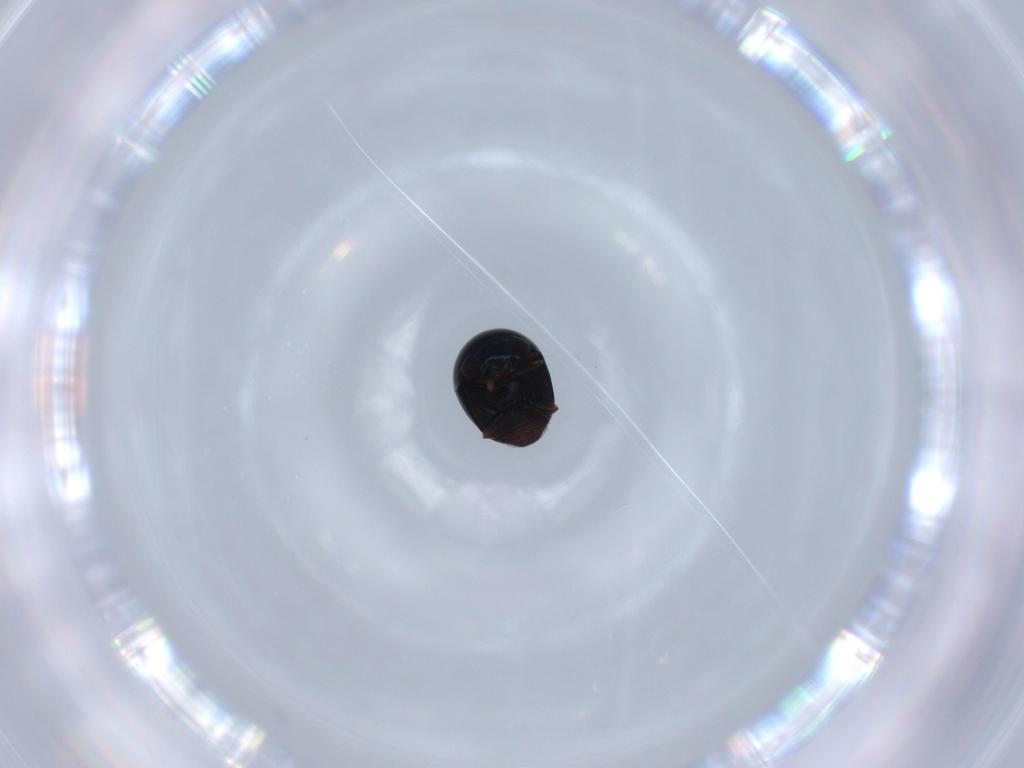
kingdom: Animalia
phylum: Arthropoda
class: Insecta
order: Coleoptera
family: Cybocephalidae
